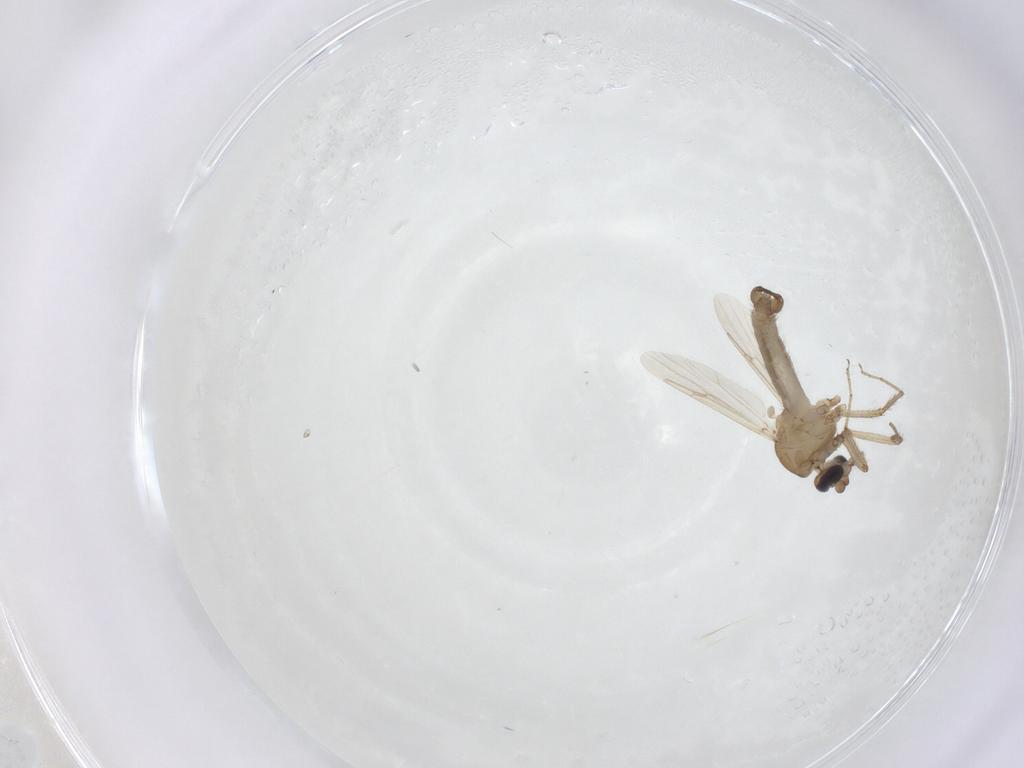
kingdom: Animalia
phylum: Arthropoda
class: Insecta
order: Diptera
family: Ceratopogonidae
